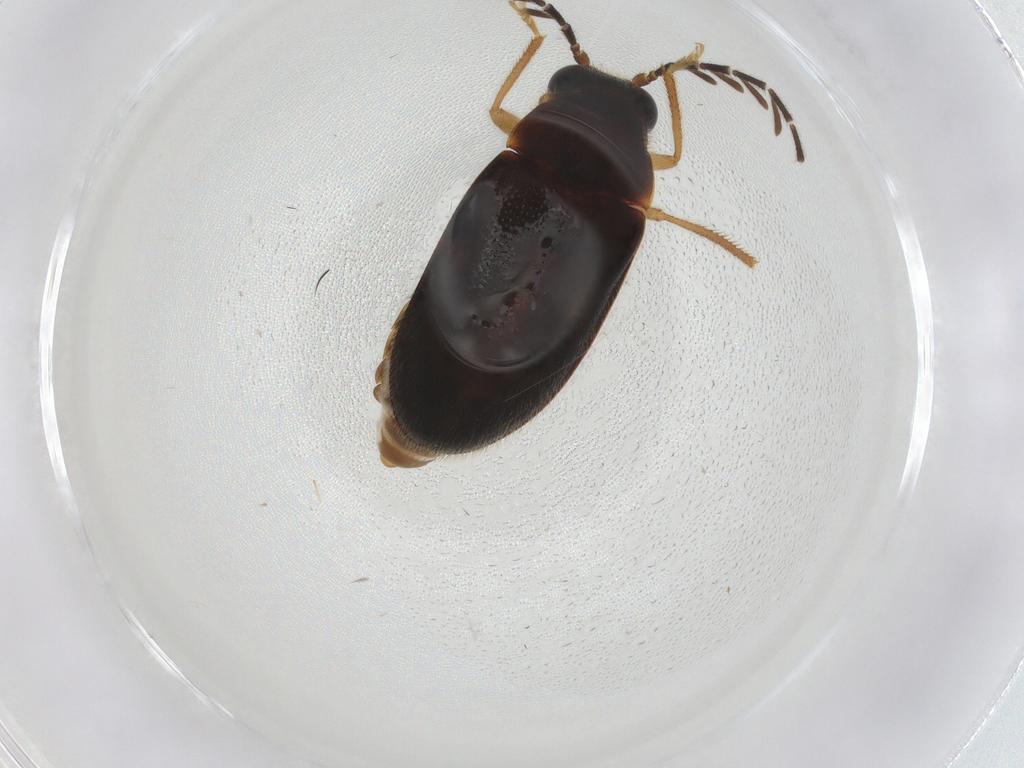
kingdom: Animalia
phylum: Arthropoda
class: Insecta
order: Coleoptera
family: Ptilodactylidae
